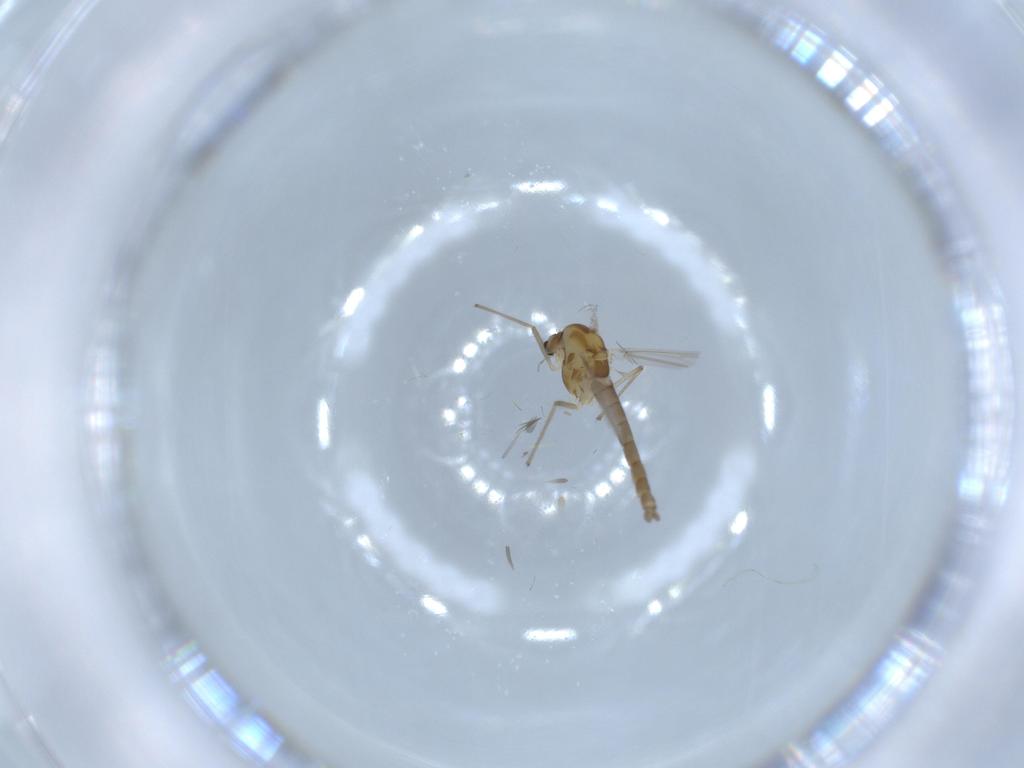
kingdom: Animalia
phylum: Arthropoda
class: Insecta
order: Diptera
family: Chironomidae
